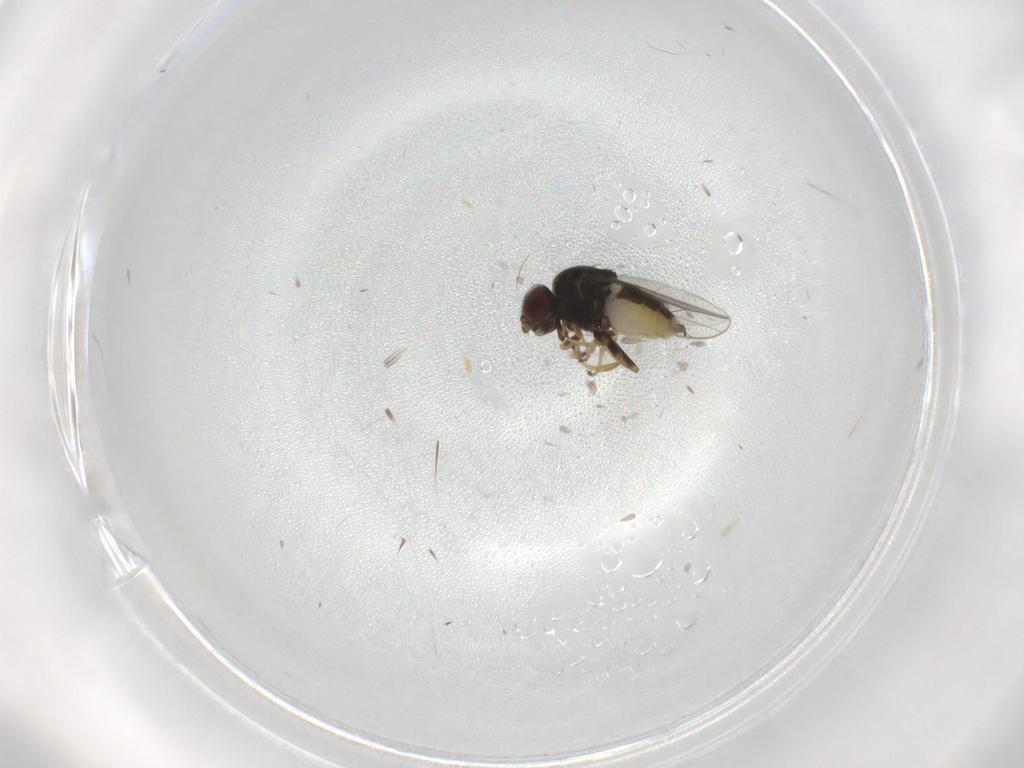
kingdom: Animalia
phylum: Arthropoda
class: Insecta
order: Diptera
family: Chloropidae
